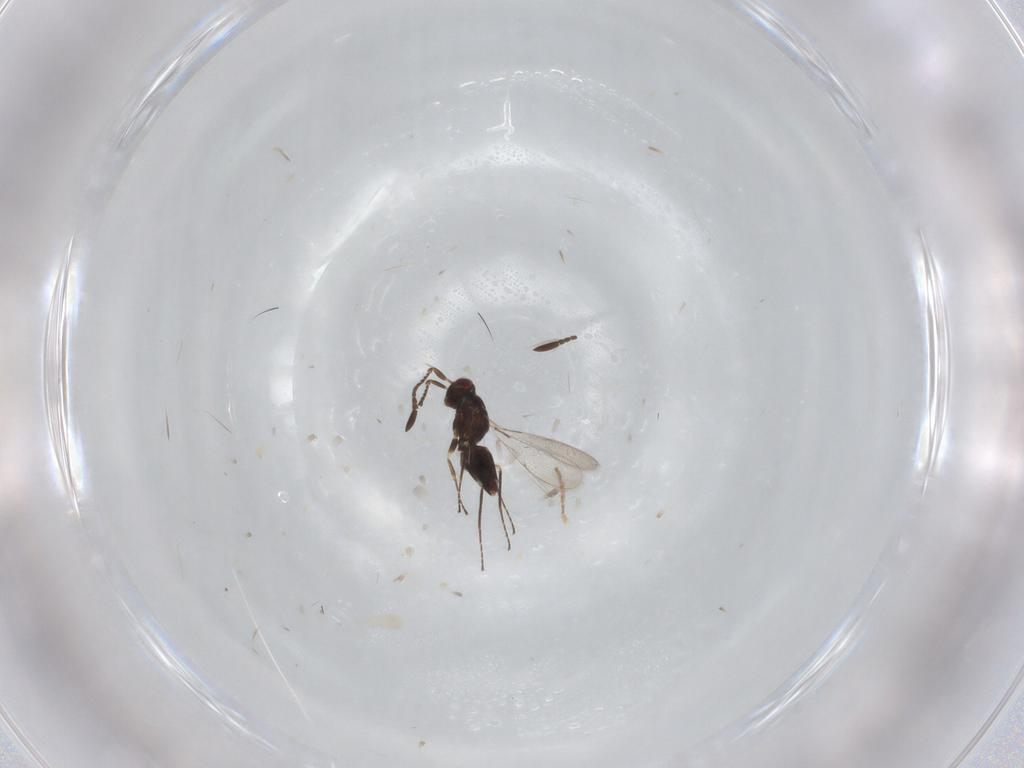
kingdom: Animalia
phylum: Arthropoda
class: Insecta
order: Hymenoptera
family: Mymaridae
